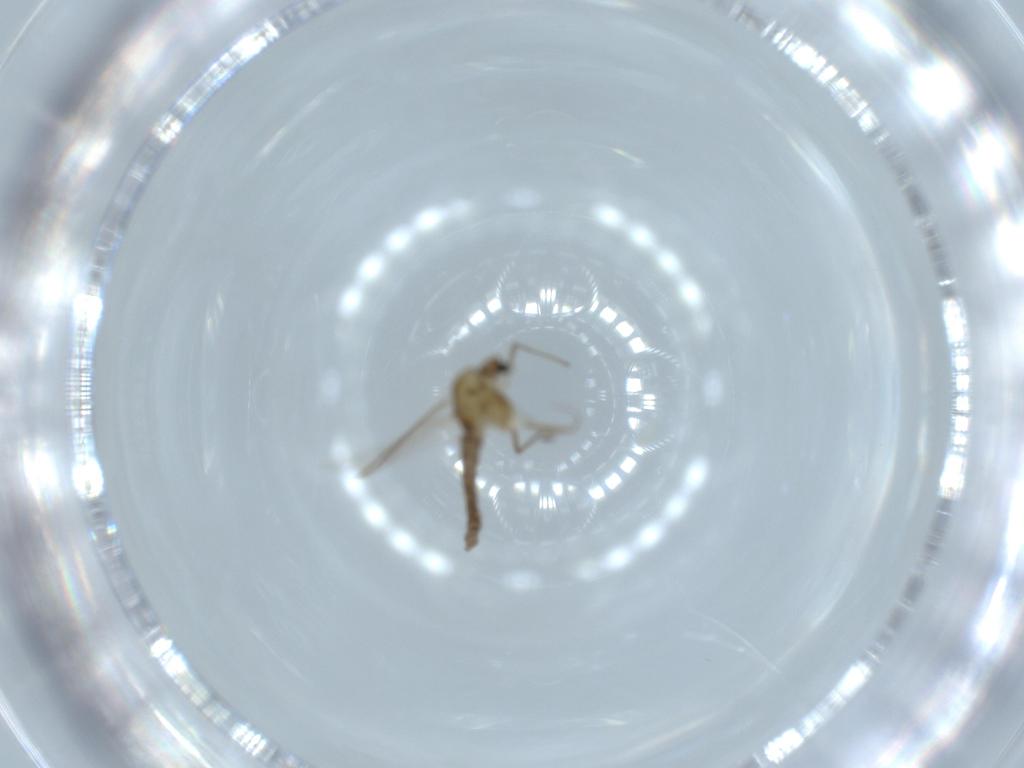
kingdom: Animalia
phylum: Arthropoda
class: Insecta
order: Diptera
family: Chironomidae
